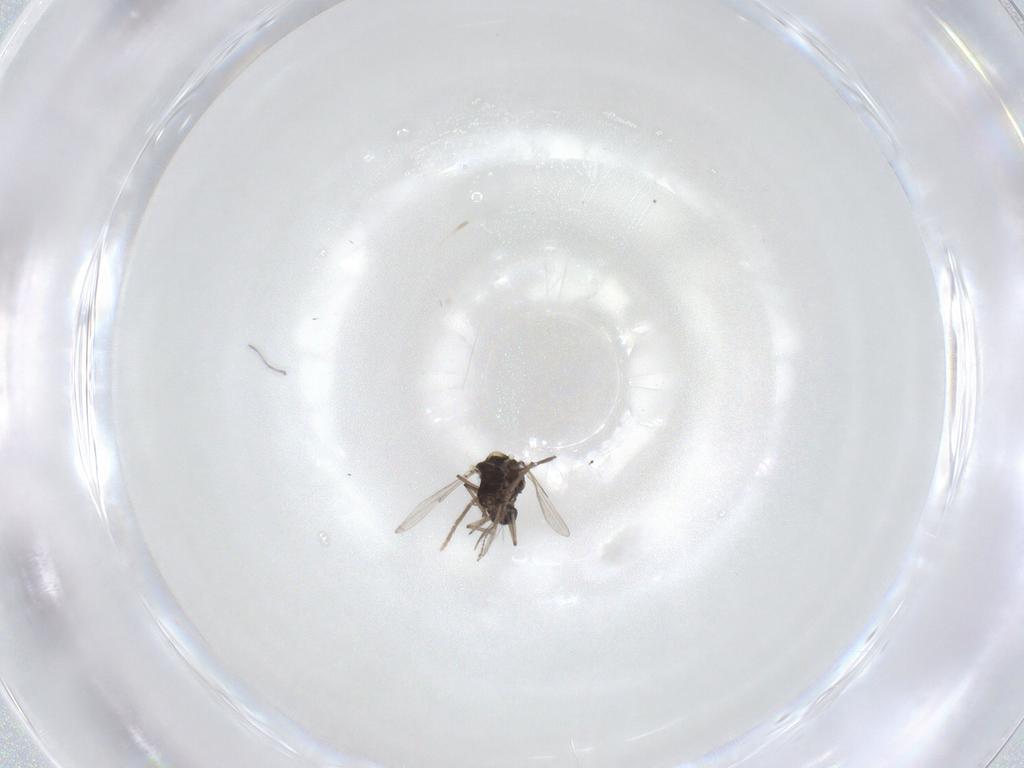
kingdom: Animalia
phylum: Arthropoda
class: Insecta
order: Diptera
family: Ceratopogonidae
